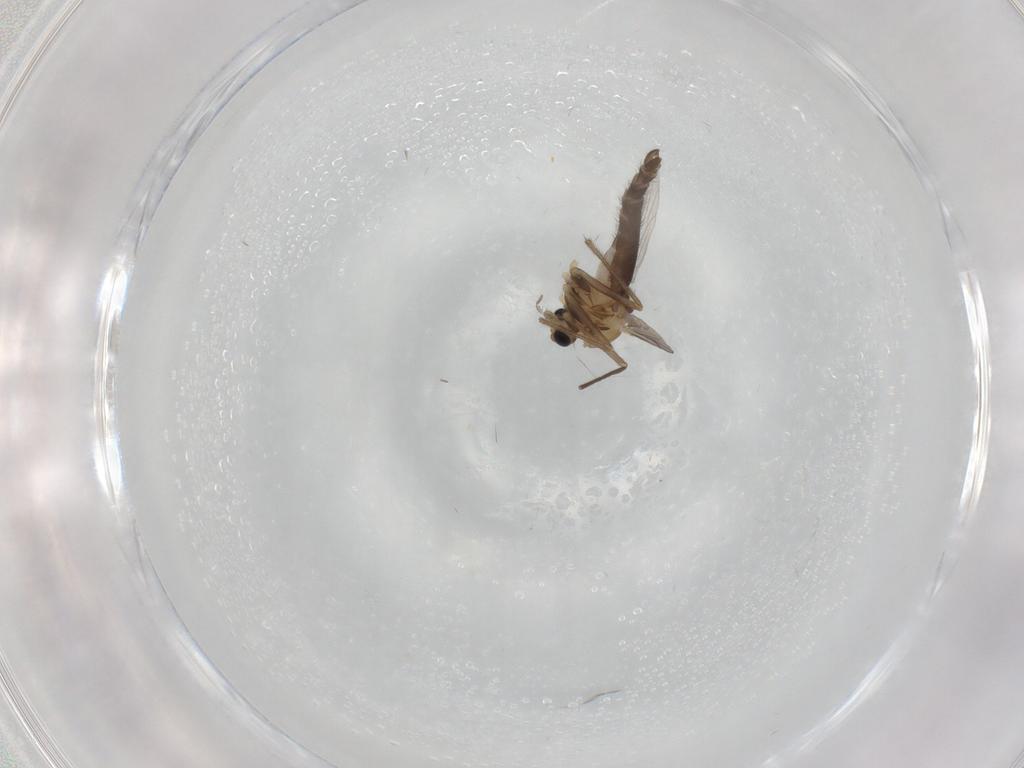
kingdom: Animalia
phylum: Arthropoda
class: Insecta
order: Diptera
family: Chironomidae
